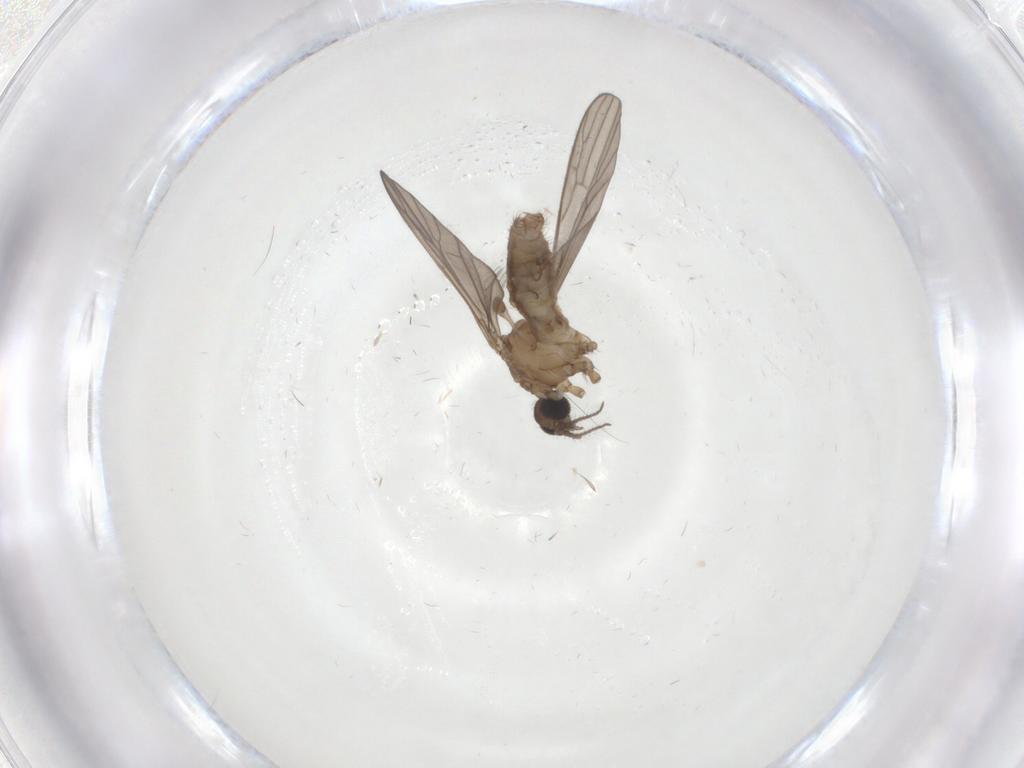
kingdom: Animalia
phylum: Arthropoda
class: Insecta
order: Diptera
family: Limoniidae
